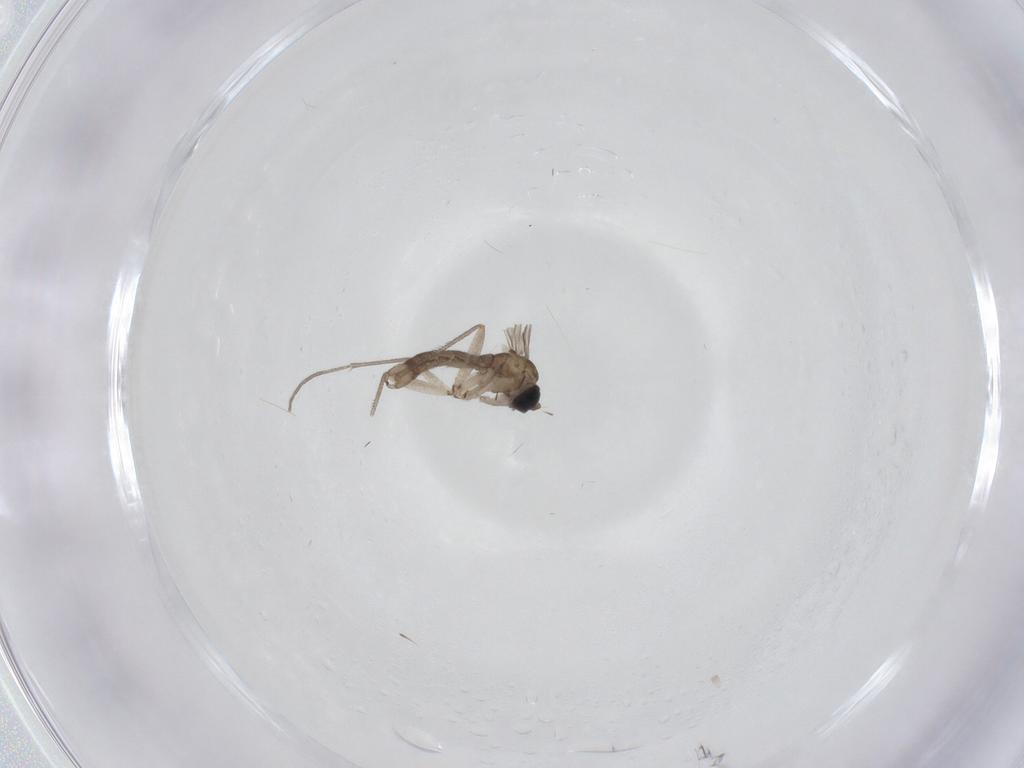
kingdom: Animalia
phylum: Arthropoda
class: Insecta
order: Diptera
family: Sciaridae
